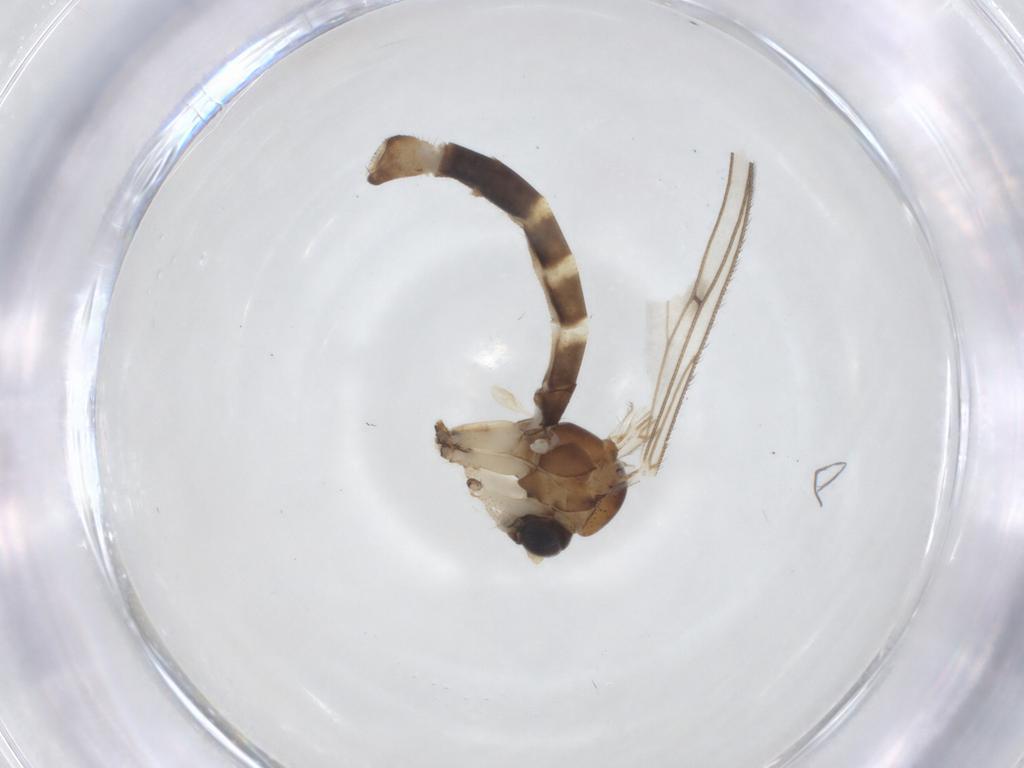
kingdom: Animalia
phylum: Arthropoda
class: Insecta
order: Diptera
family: Mycetophilidae
